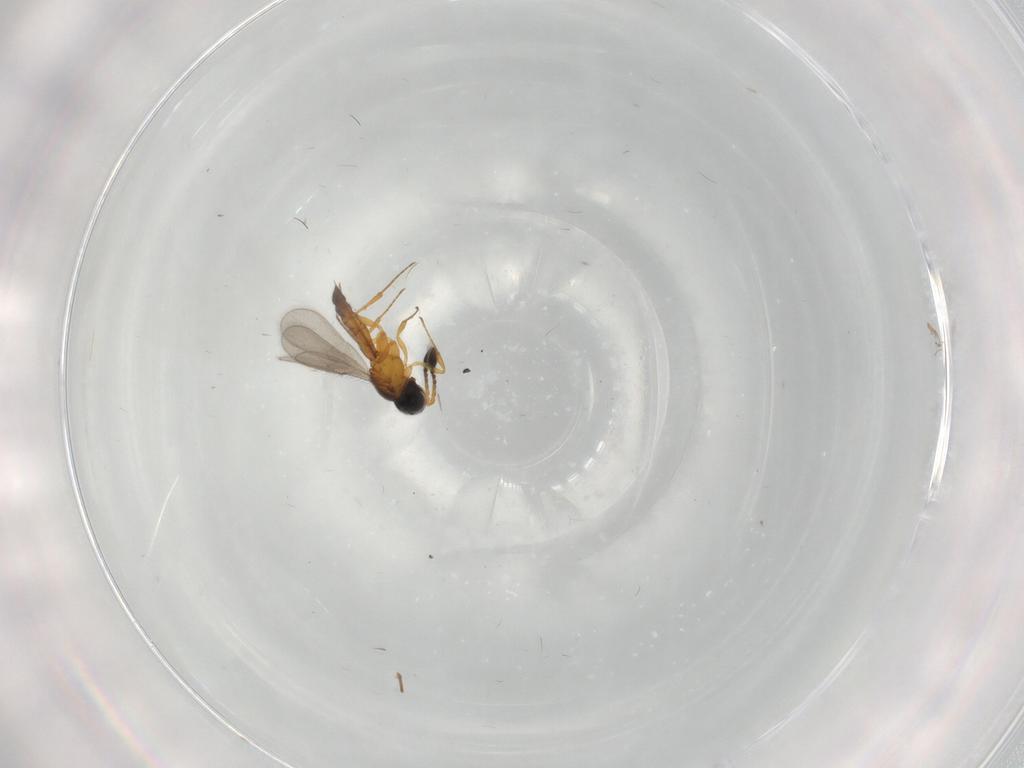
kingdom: Animalia
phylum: Arthropoda
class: Insecta
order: Hymenoptera
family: Scelionidae
